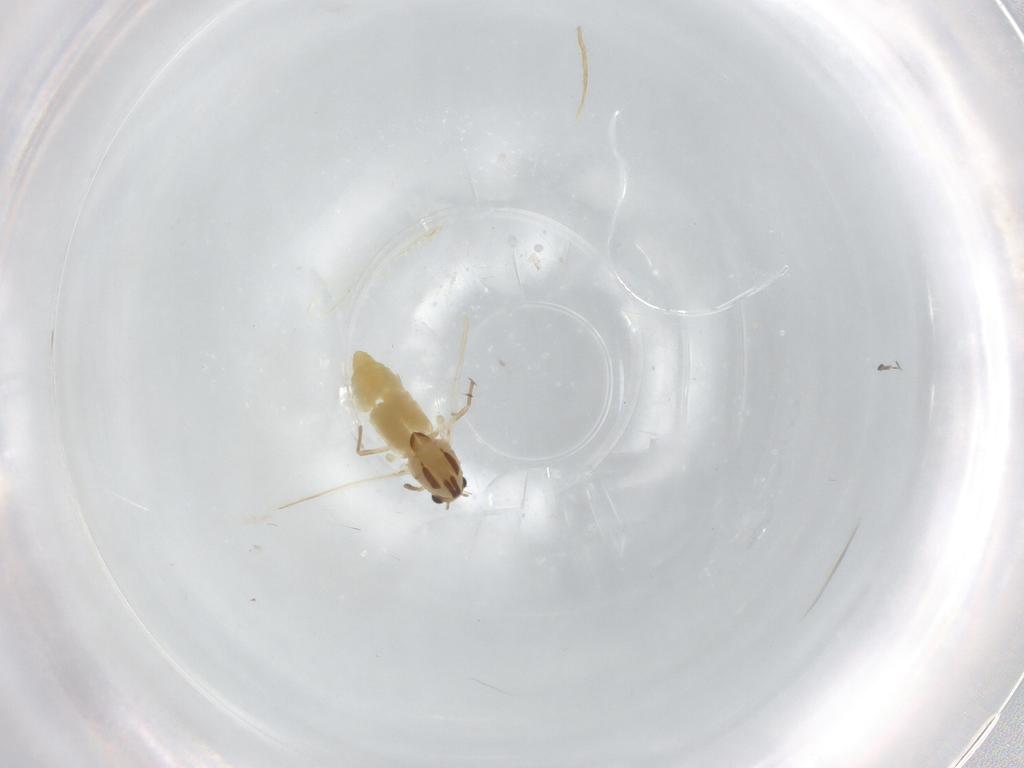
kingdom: Animalia
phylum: Arthropoda
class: Insecta
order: Diptera
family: Chironomidae
